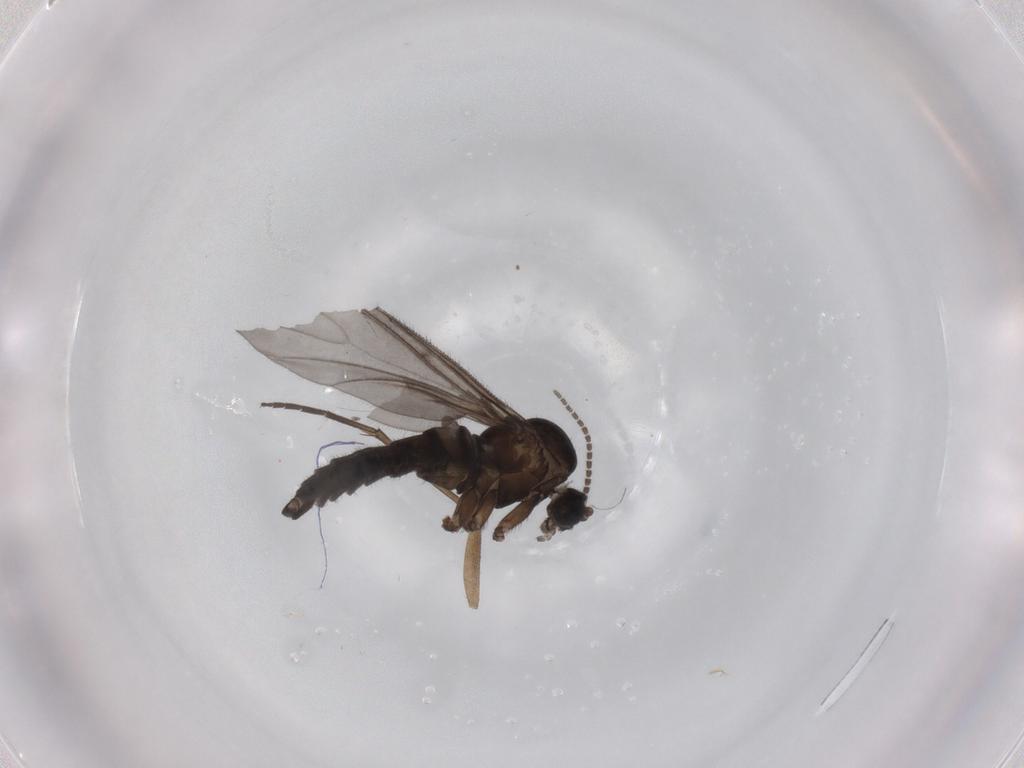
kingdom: Animalia
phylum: Arthropoda
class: Insecta
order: Diptera
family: Sciaridae
